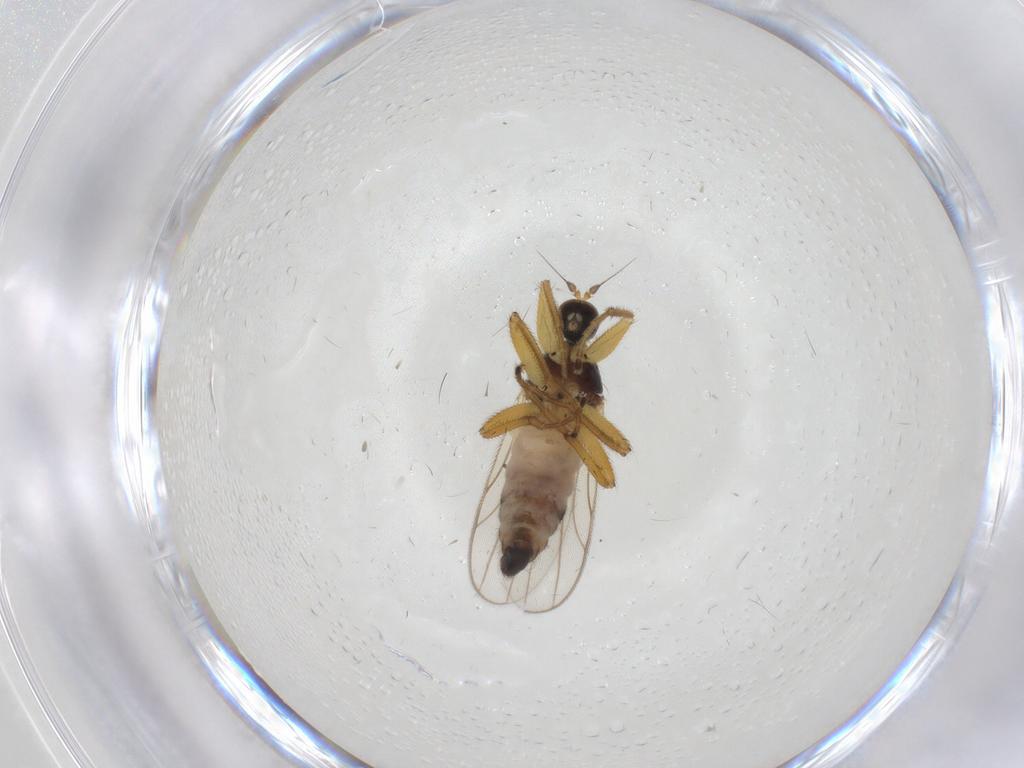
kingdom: Animalia
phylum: Arthropoda
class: Insecta
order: Diptera
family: Hybotidae
